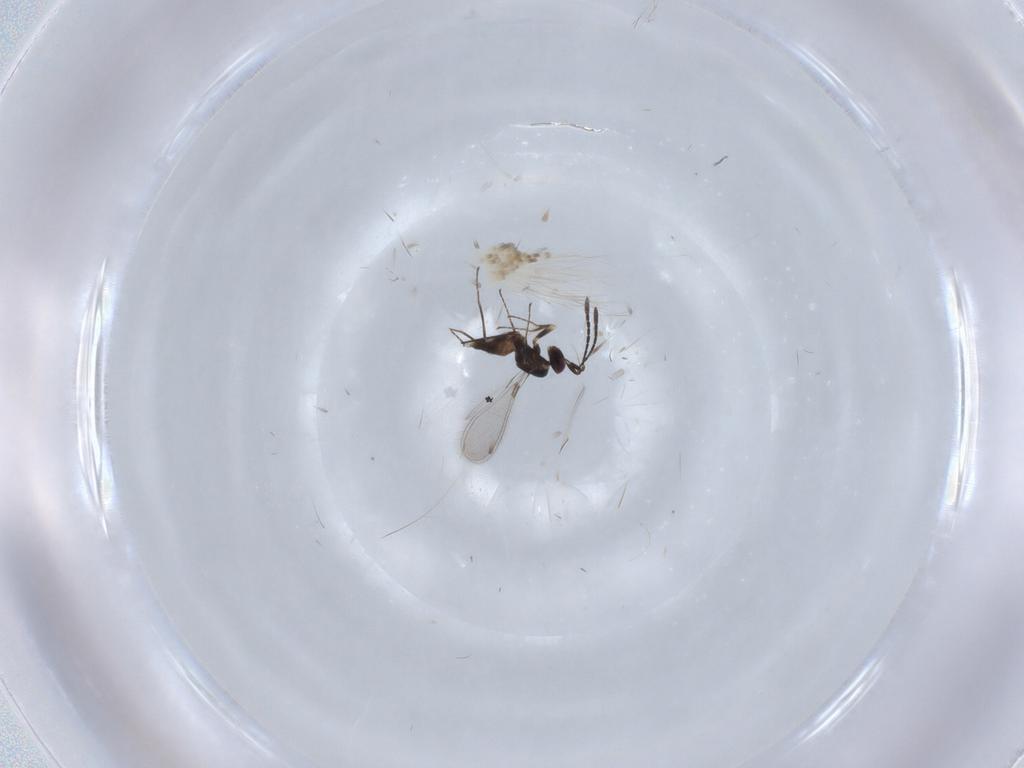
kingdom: Animalia
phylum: Arthropoda
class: Insecta
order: Hymenoptera
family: Mymaridae
